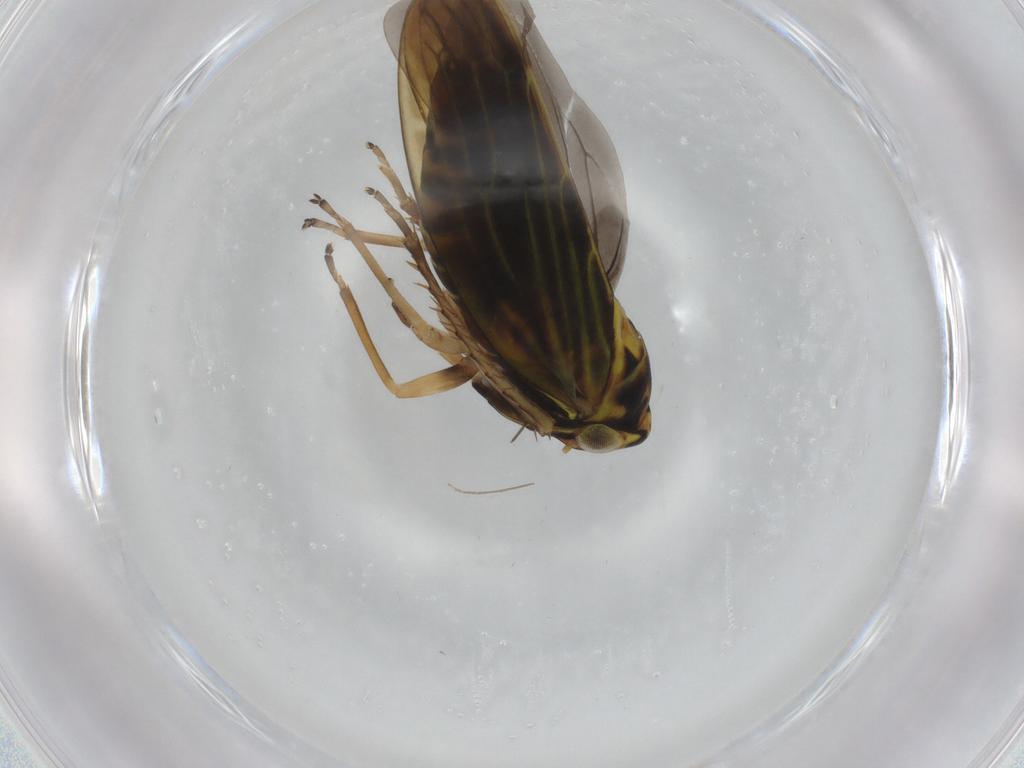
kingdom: Animalia
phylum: Arthropoda
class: Insecta
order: Hemiptera
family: Cicadellidae
